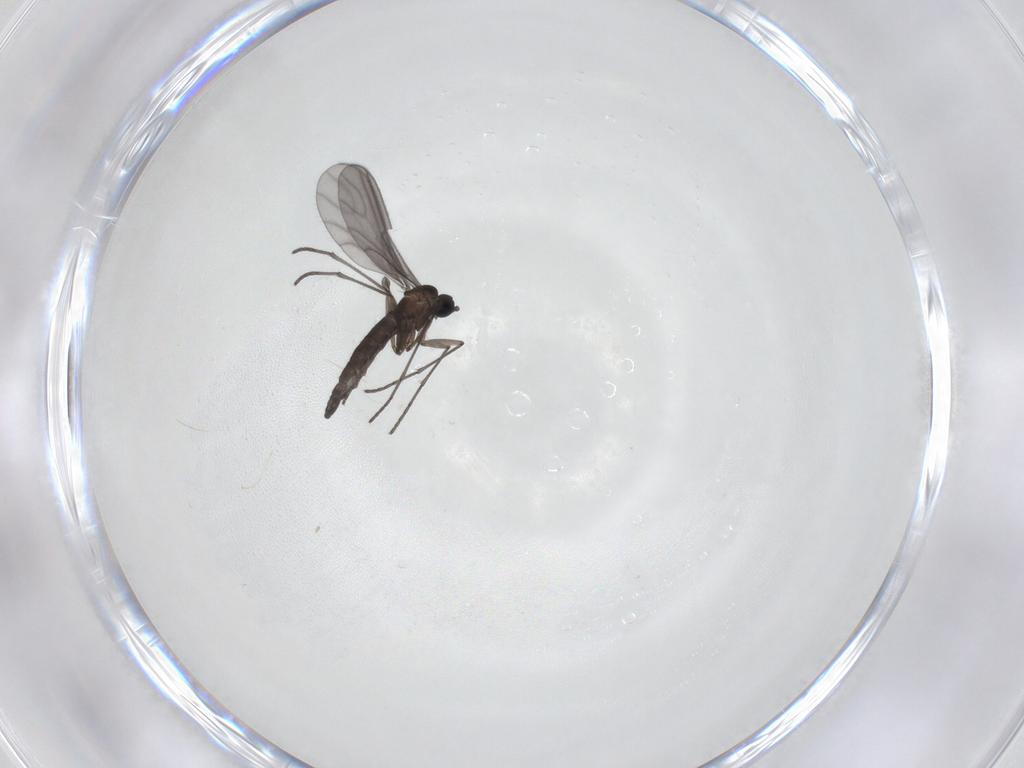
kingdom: Animalia
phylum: Arthropoda
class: Insecta
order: Diptera
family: Sciaridae
